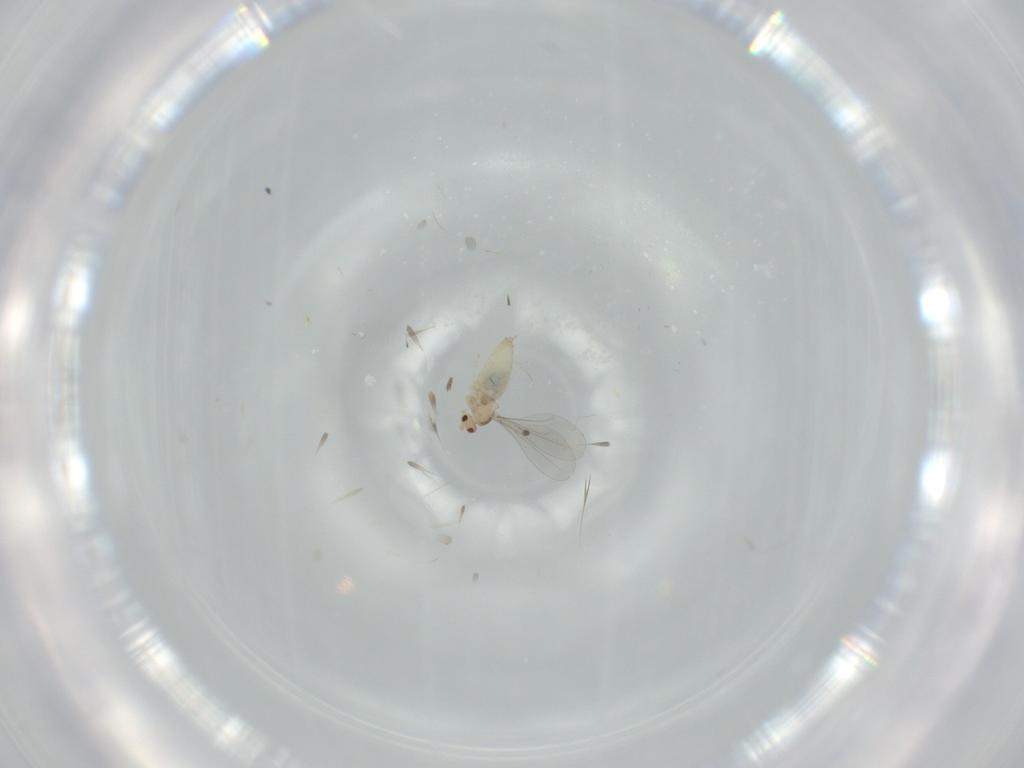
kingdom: Animalia
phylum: Arthropoda
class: Insecta
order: Diptera
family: Cecidomyiidae
